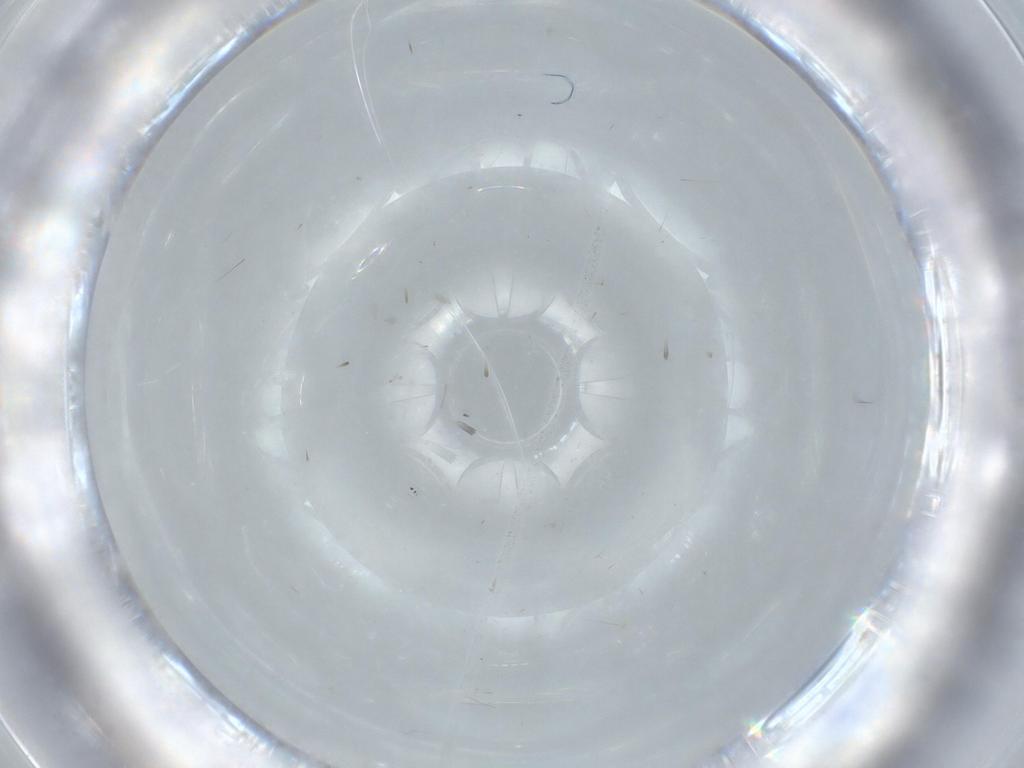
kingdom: Animalia
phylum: Arthropoda
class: Insecta
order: Lepidoptera
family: Tineidae
